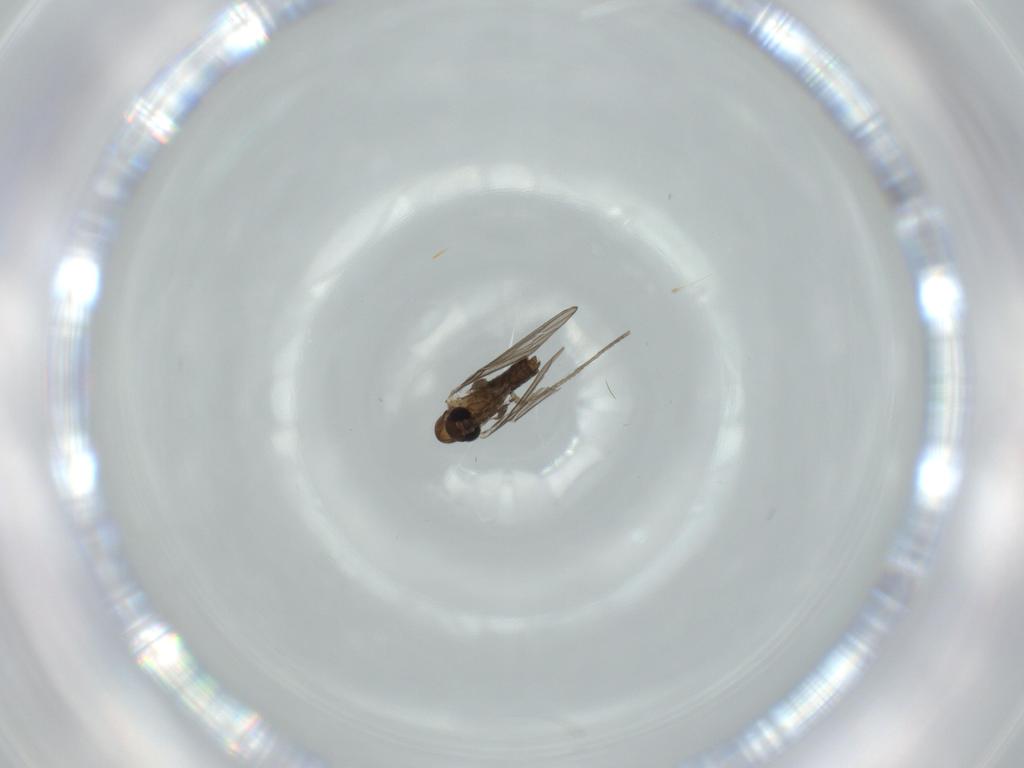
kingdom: Animalia
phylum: Arthropoda
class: Insecta
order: Diptera
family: Psychodidae
